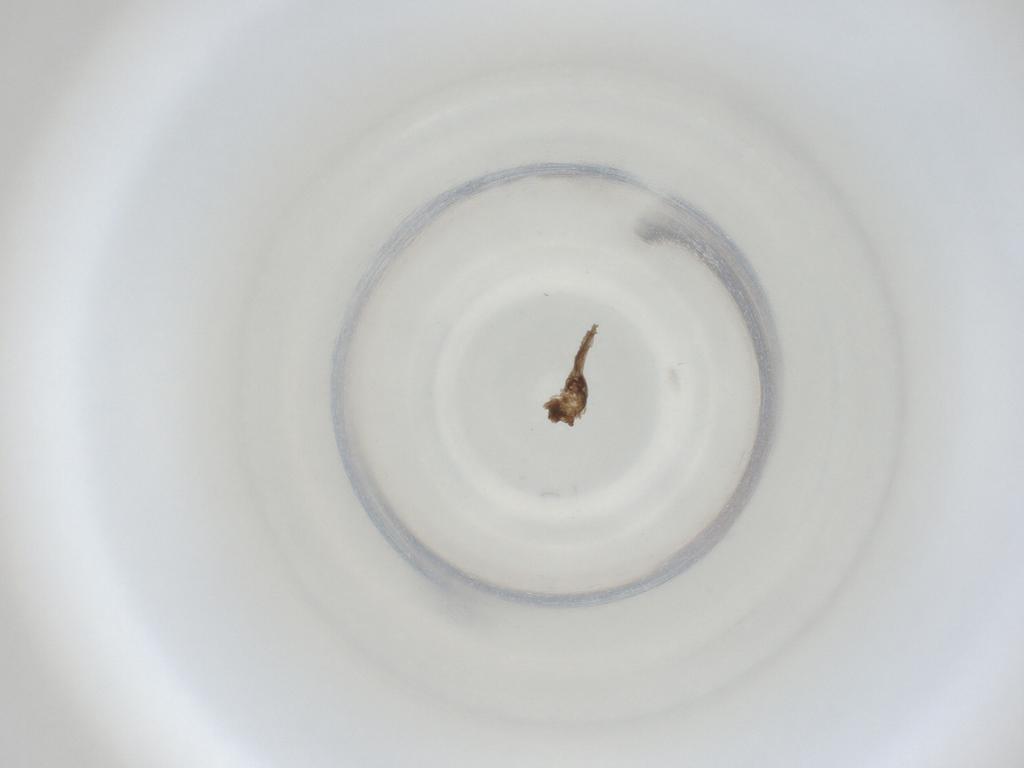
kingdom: Animalia
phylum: Arthropoda
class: Insecta
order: Diptera
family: Cecidomyiidae
